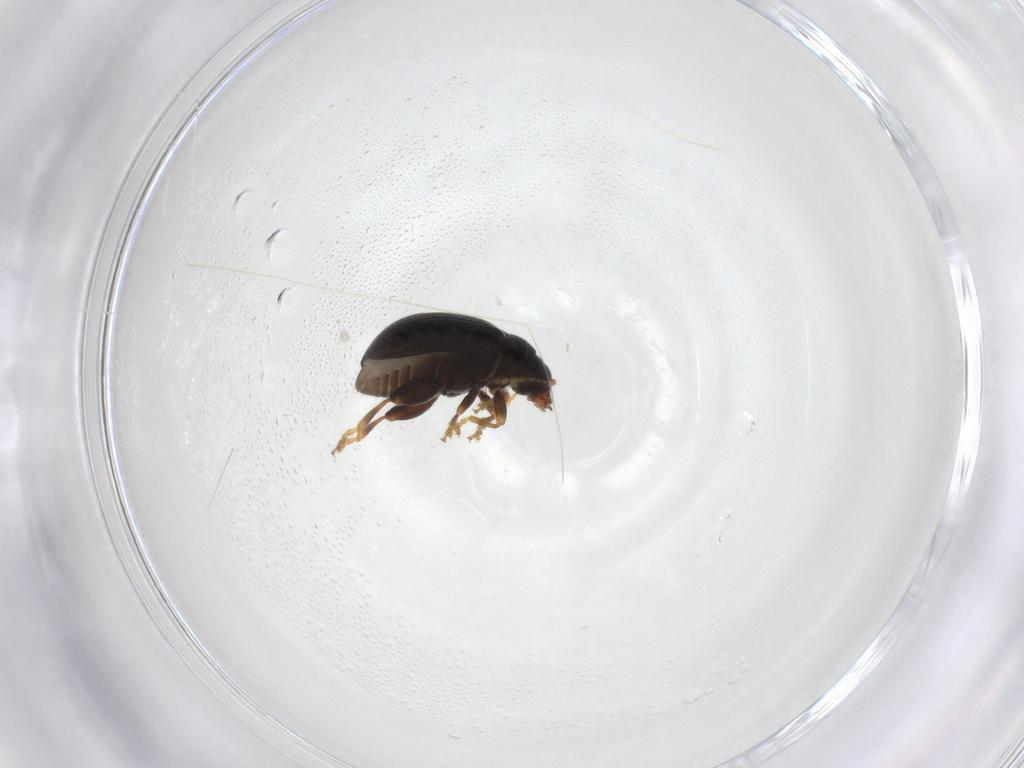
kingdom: Animalia
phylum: Arthropoda
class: Insecta
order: Coleoptera
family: Chrysomelidae
